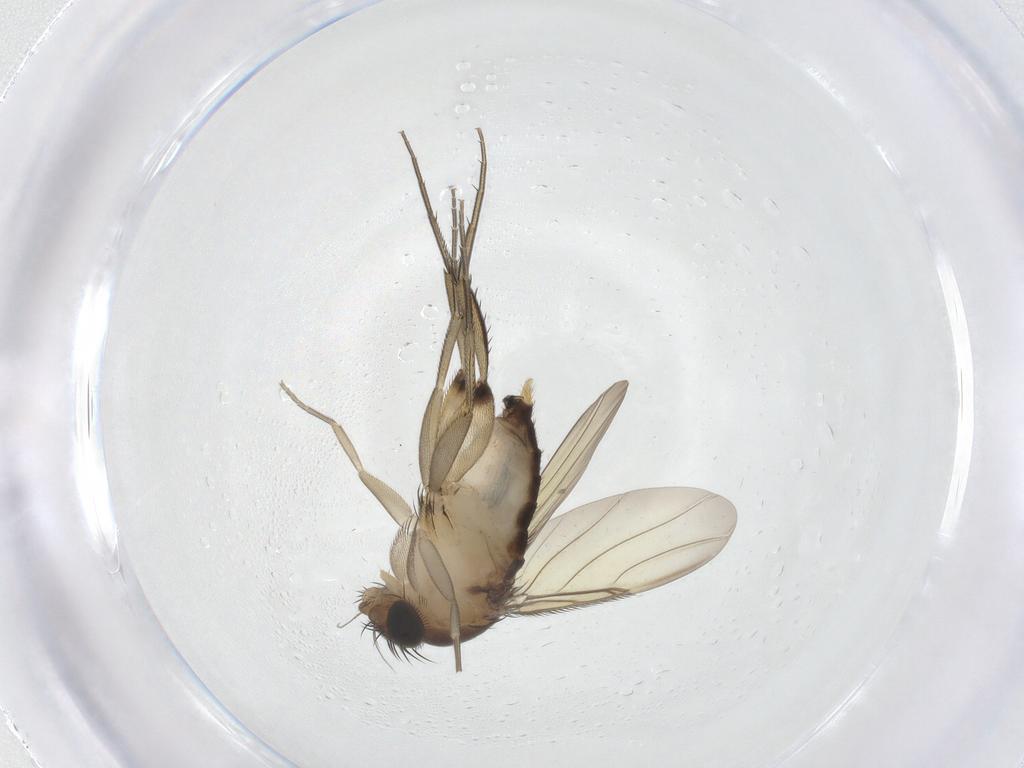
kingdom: Animalia
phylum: Arthropoda
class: Insecta
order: Diptera
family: Phoridae
